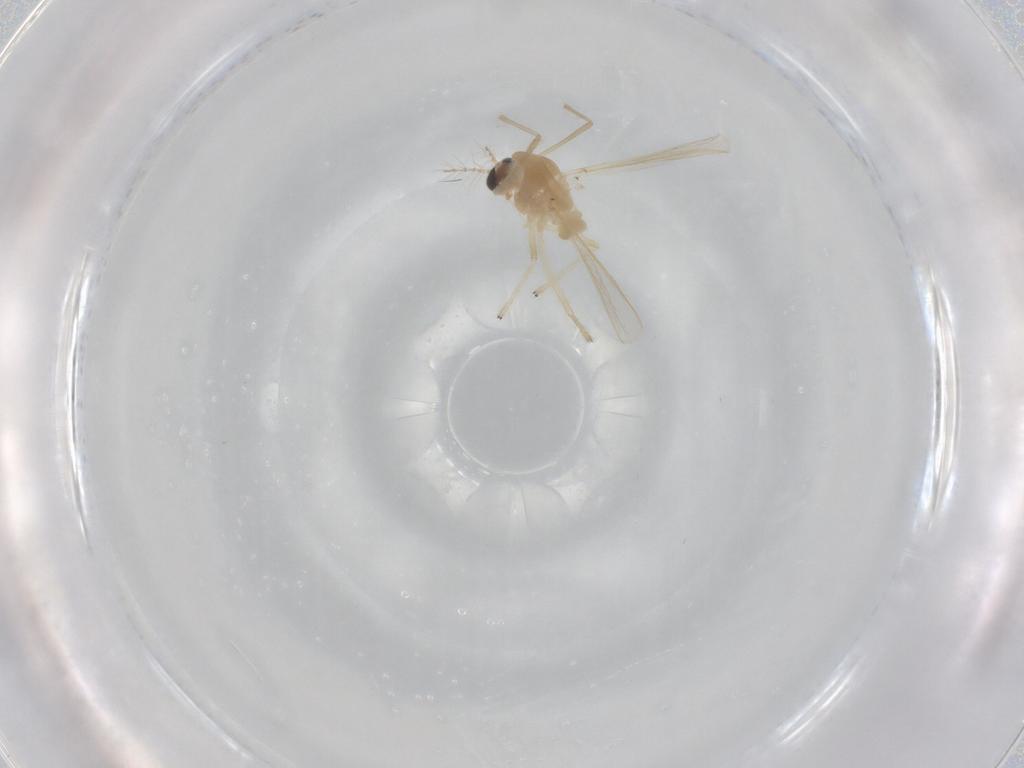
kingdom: Animalia
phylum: Arthropoda
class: Insecta
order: Diptera
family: Chironomidae
